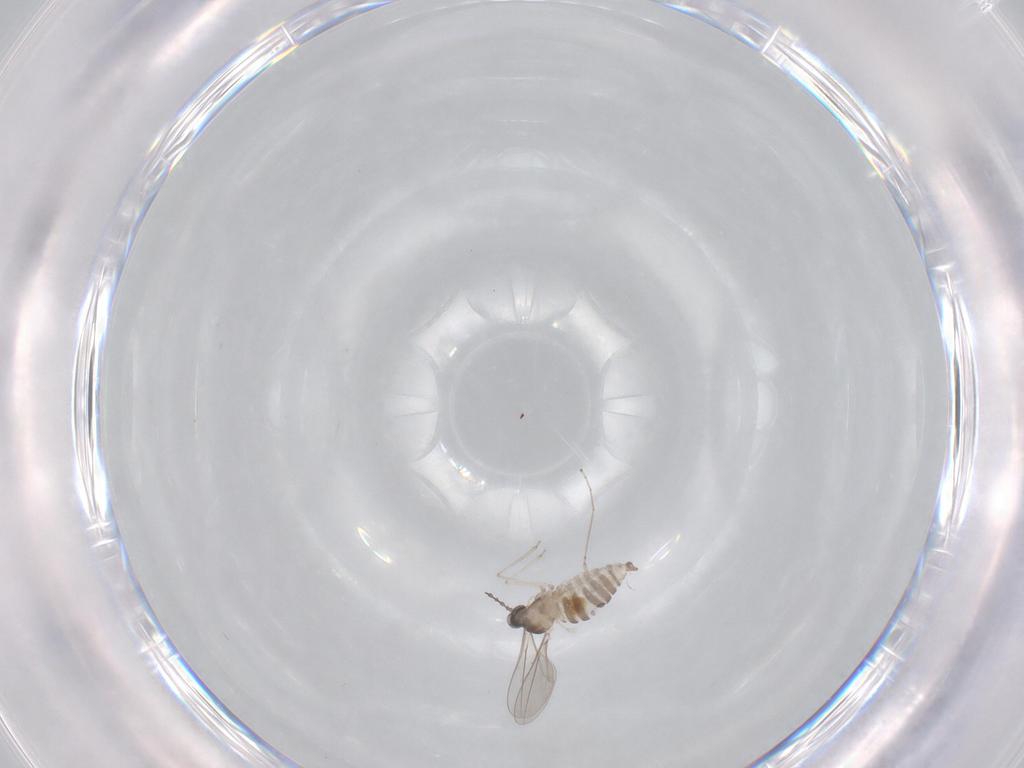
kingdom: Animalia
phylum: Arthropoda
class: Insecta
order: Diptera
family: Cecidomyiidae
